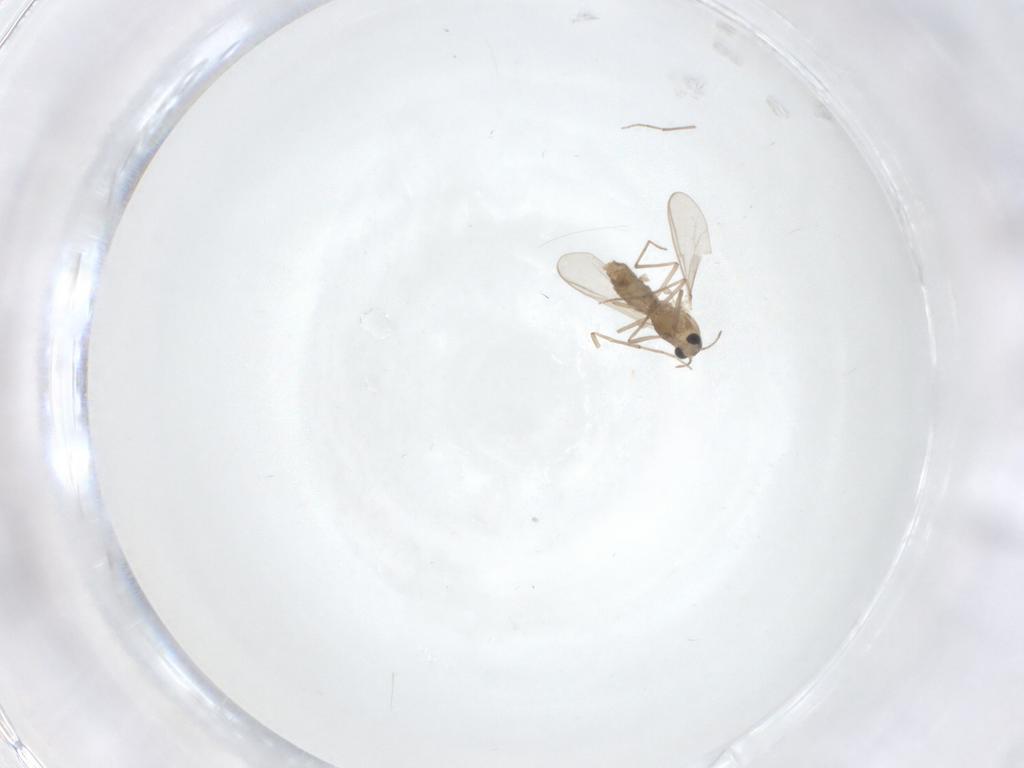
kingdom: Animalia
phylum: Arthropoda
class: Insecta
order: Diptera
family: Chironomidae
